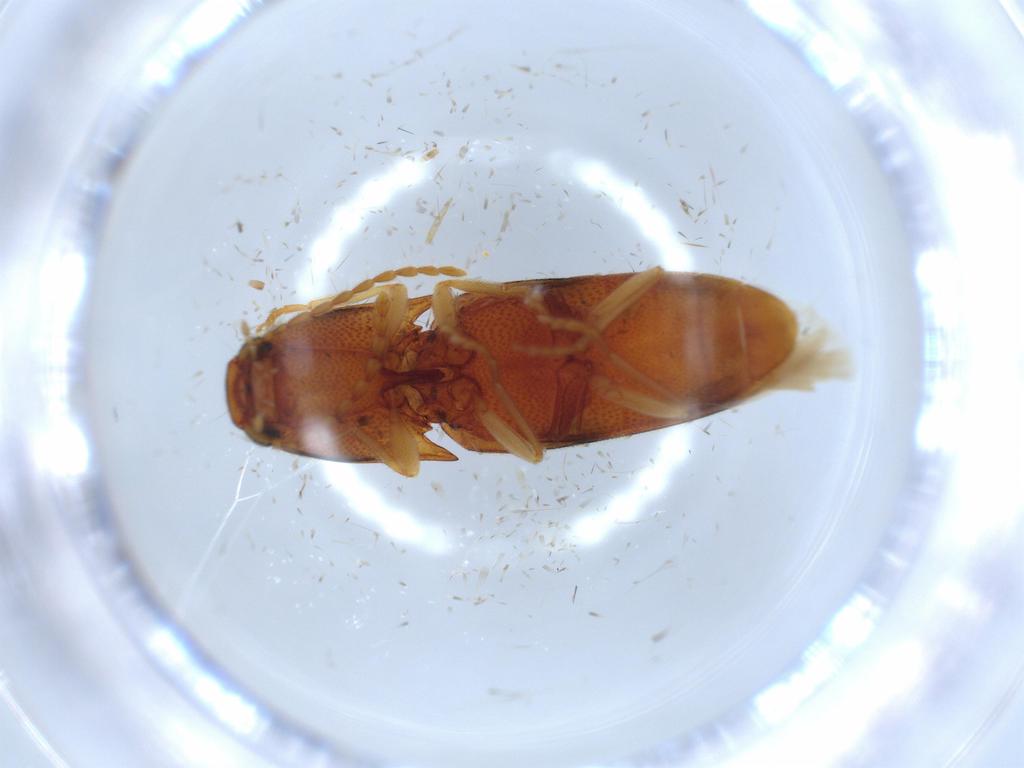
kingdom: Animalia
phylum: Arthropoda
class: Insecta
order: Coleoptera
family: Elateridae
